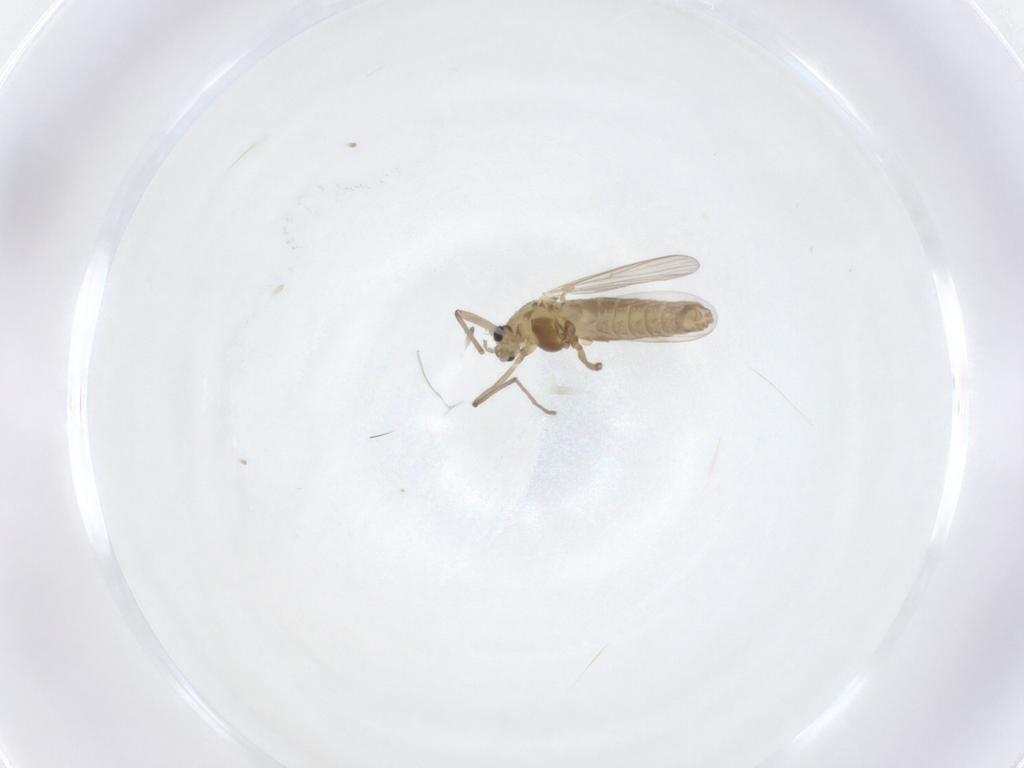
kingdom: Animalia
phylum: Arthropoda
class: Insecta
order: Diptera
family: Chironomidae
